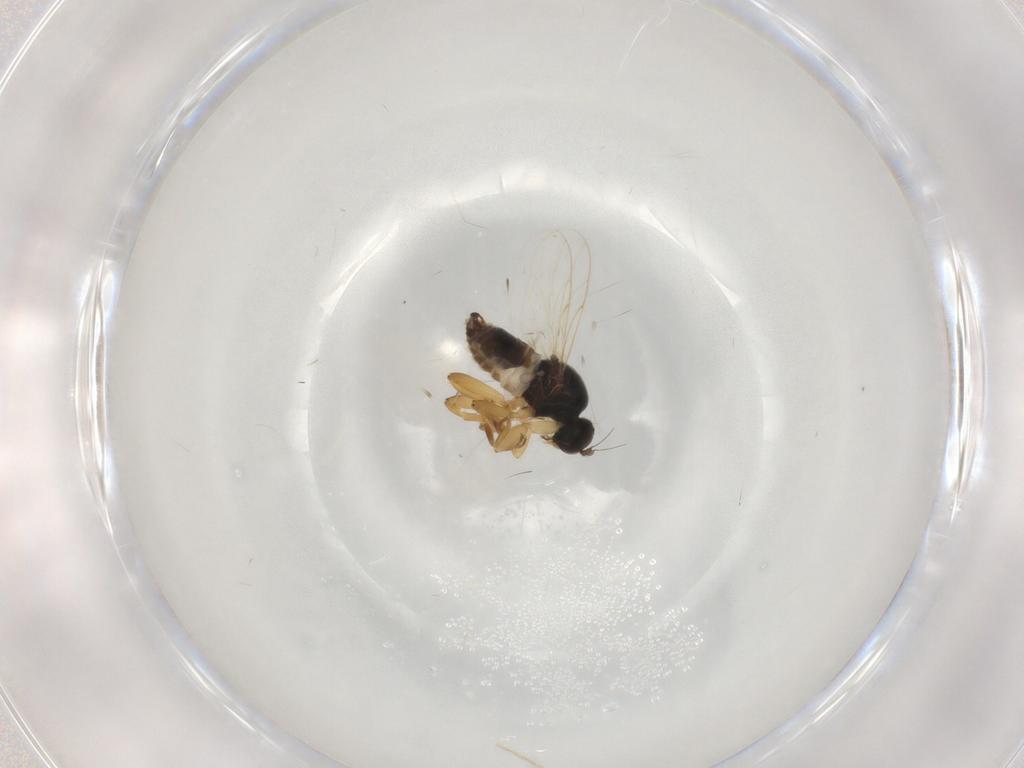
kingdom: Animalia
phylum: Arthropoda
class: Insecta
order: Diptera
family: Hybotidae
